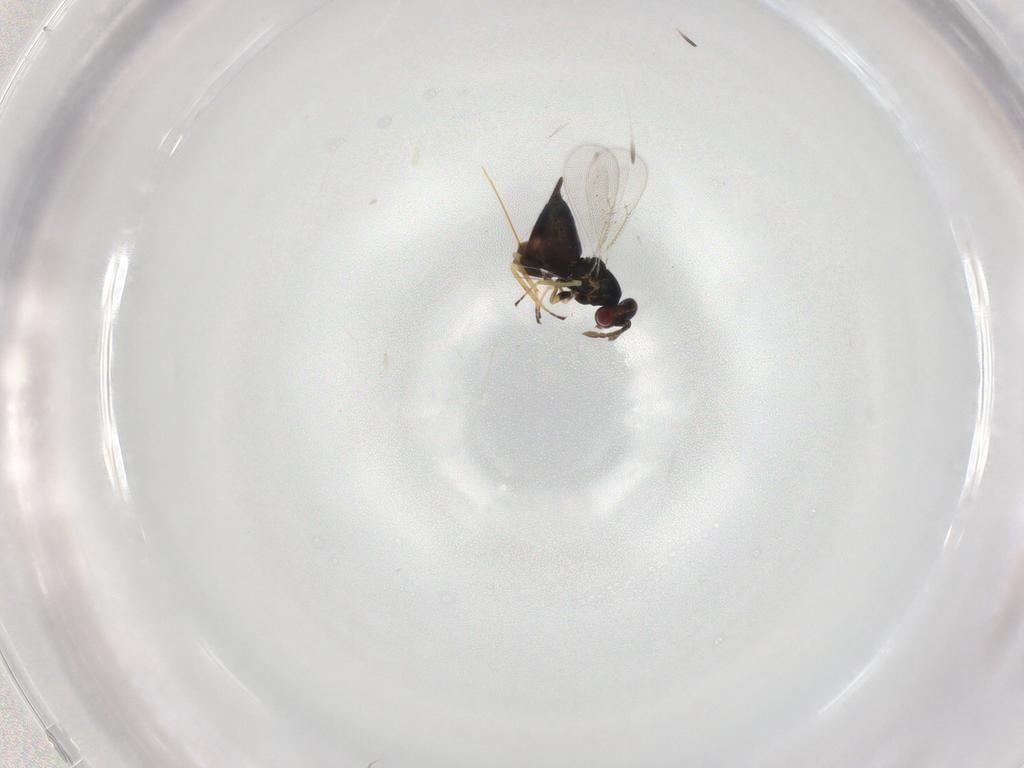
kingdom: Animalia
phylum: Arthropoda
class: Insecta
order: Hymenoptera
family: Eulophidae
